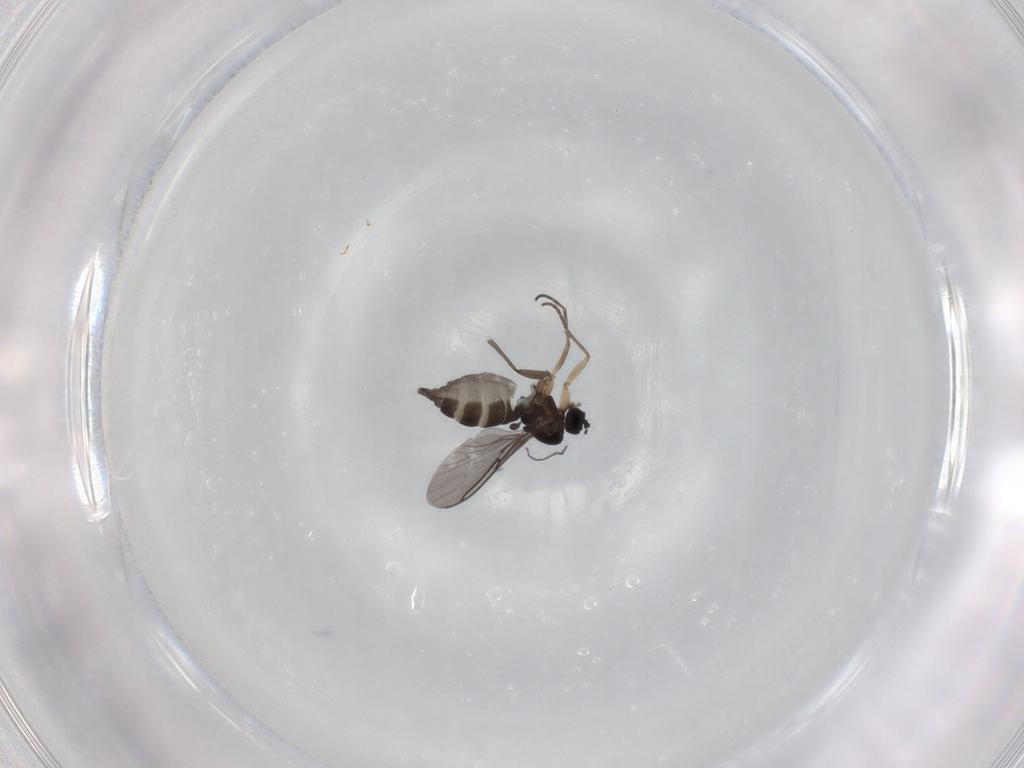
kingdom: Animalia
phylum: Arthropoda
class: Insecta
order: Diptera
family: Sciaridae
